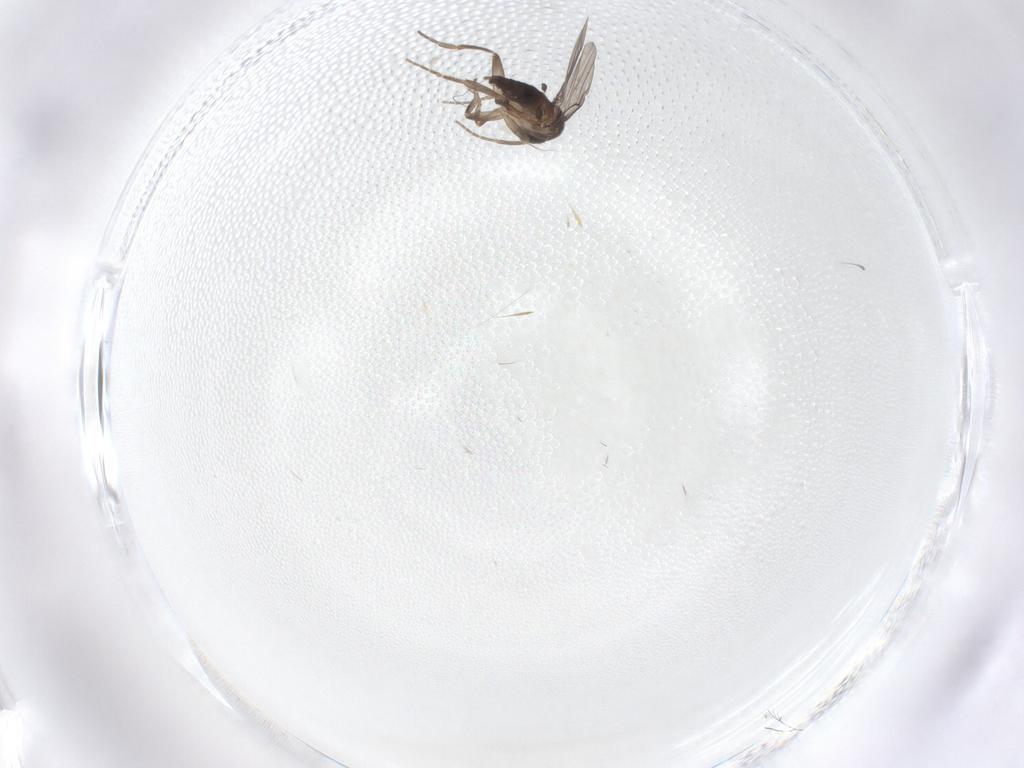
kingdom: Animalia
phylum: Arthropoda
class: Insecta
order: Diptera
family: Phoridae
